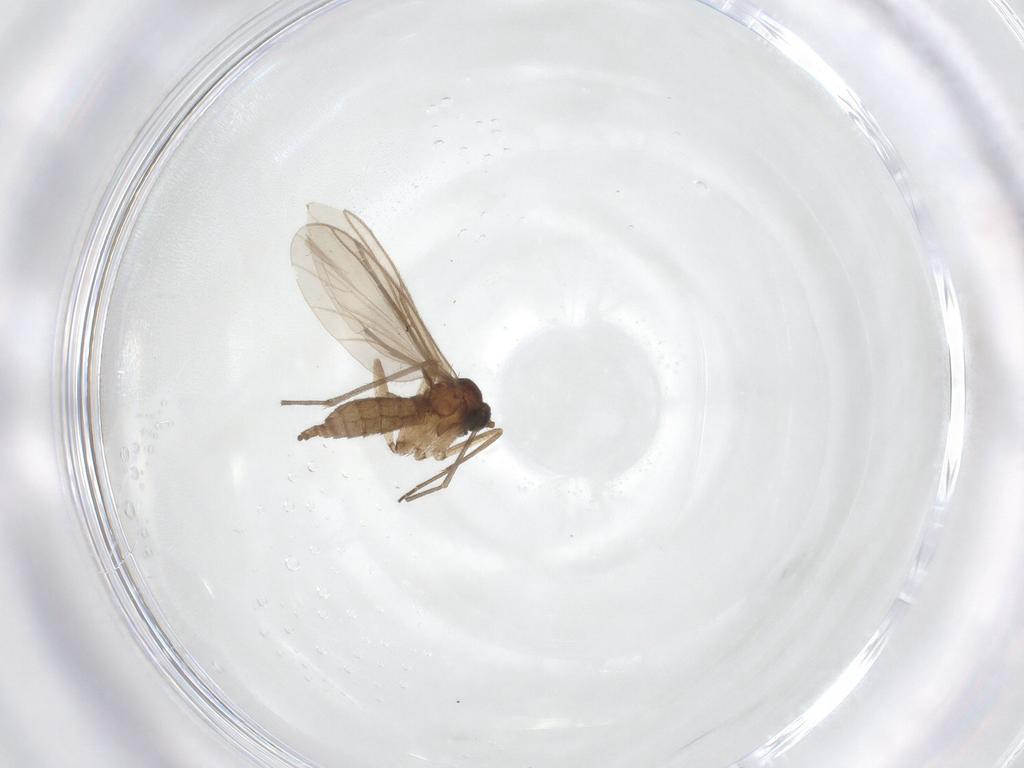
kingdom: Animalia
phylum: Arthropoda
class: Insecta
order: Diptera
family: Sciaridae
